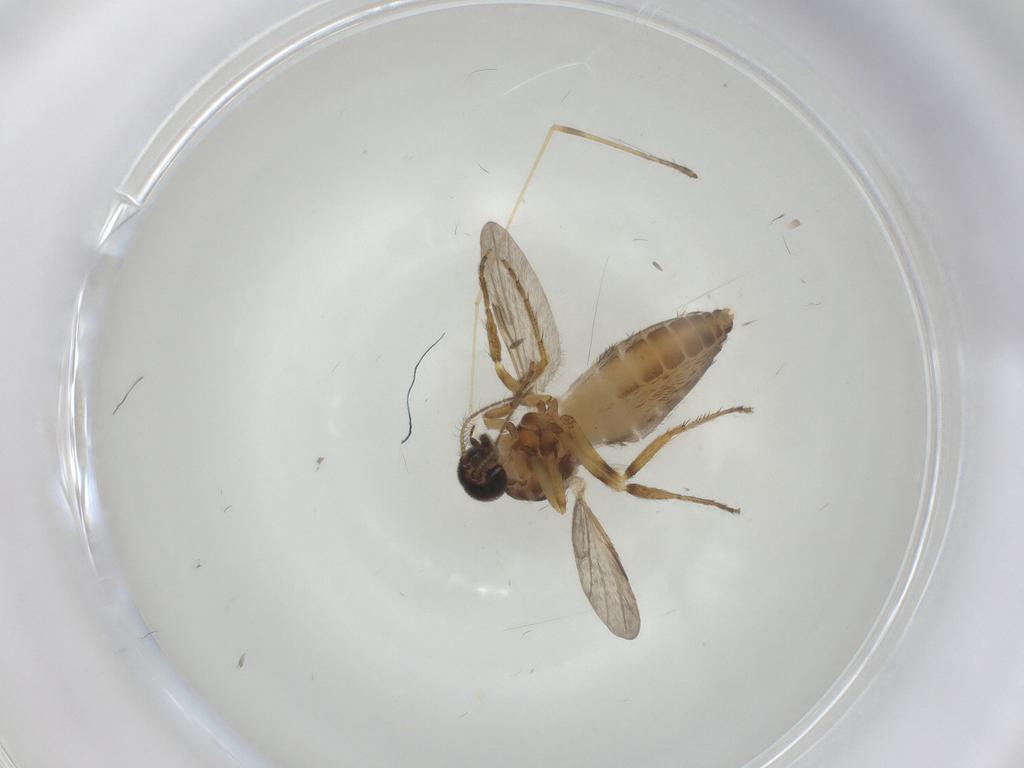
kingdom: Animalia
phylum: Arthropoda
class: Insecta
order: Diptera
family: Ceratopogonidae
